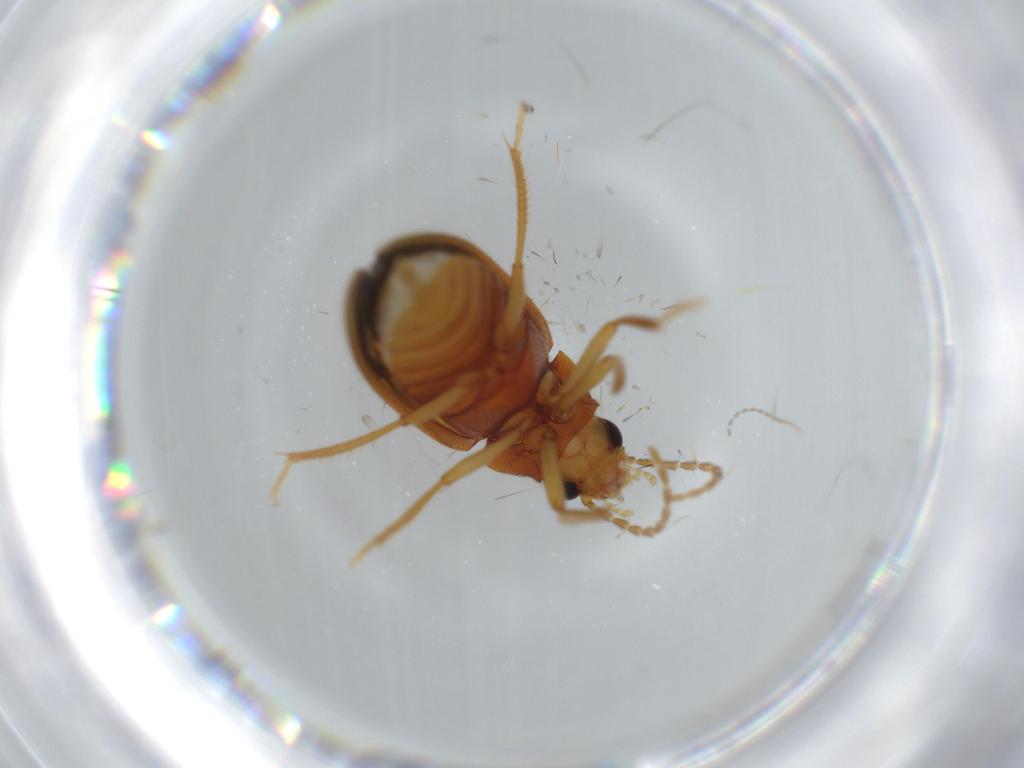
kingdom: Animalia
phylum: Arthropoda
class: Insecta
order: Coleoptera
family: Ptilodactylidae
